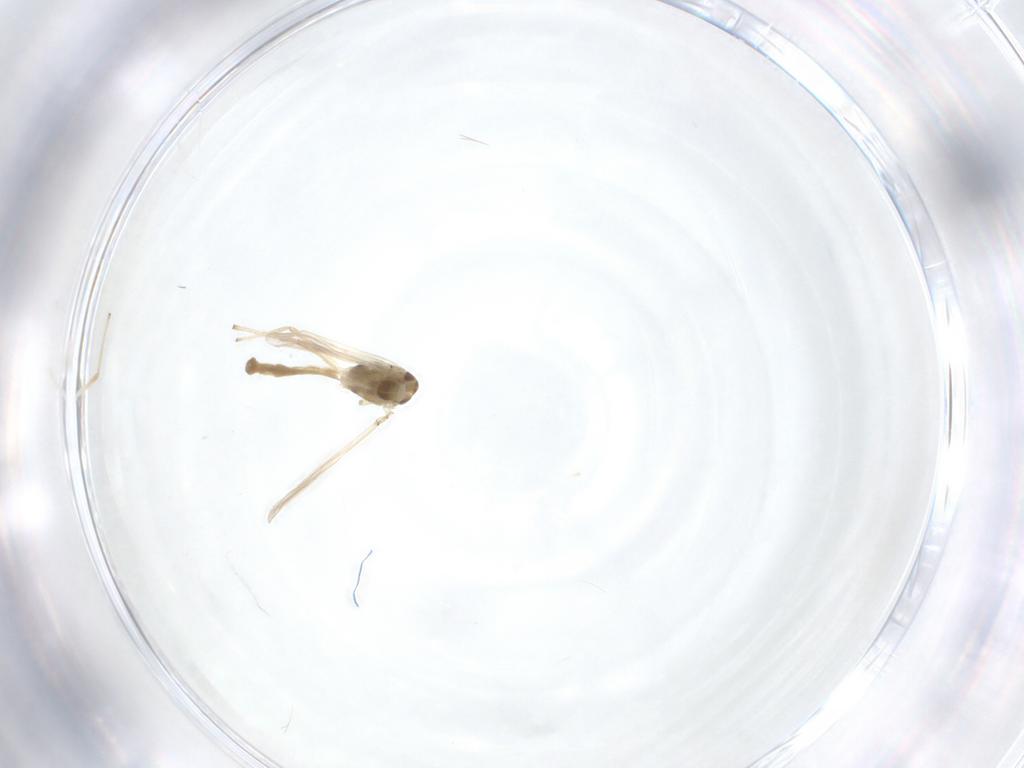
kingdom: Animalia
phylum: Arthropoda
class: Insecta
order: Diptera
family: Chironomidae
